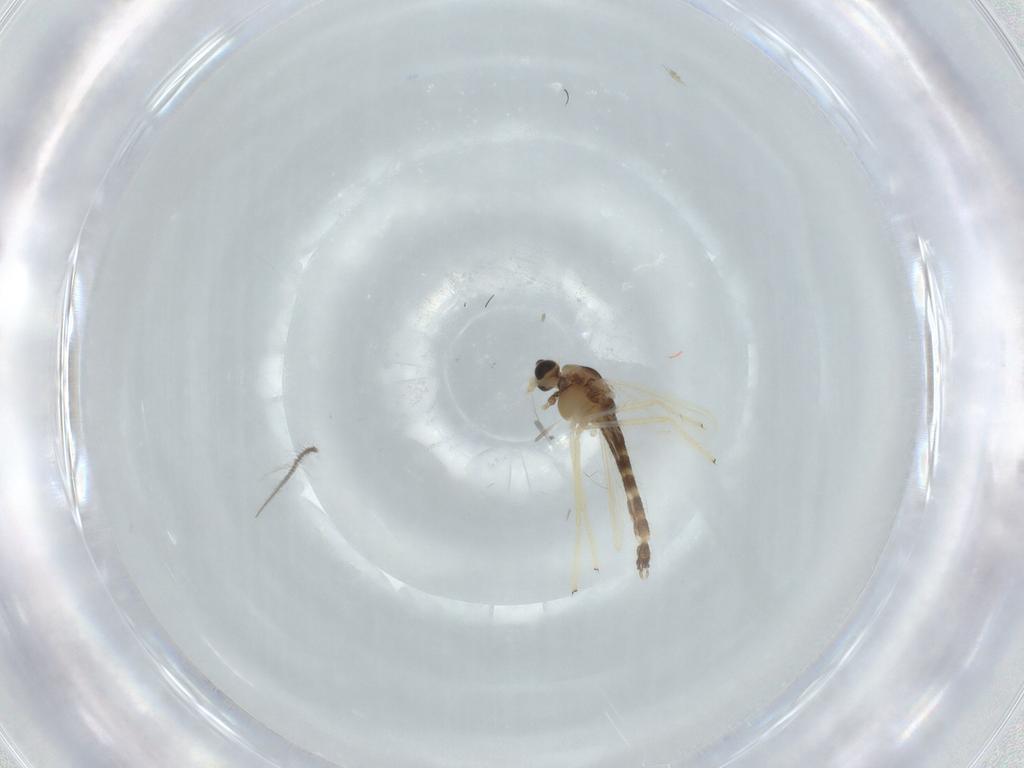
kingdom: Animalia
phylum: Arthropoda
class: Insecta
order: Diptera
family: Chironomidae
